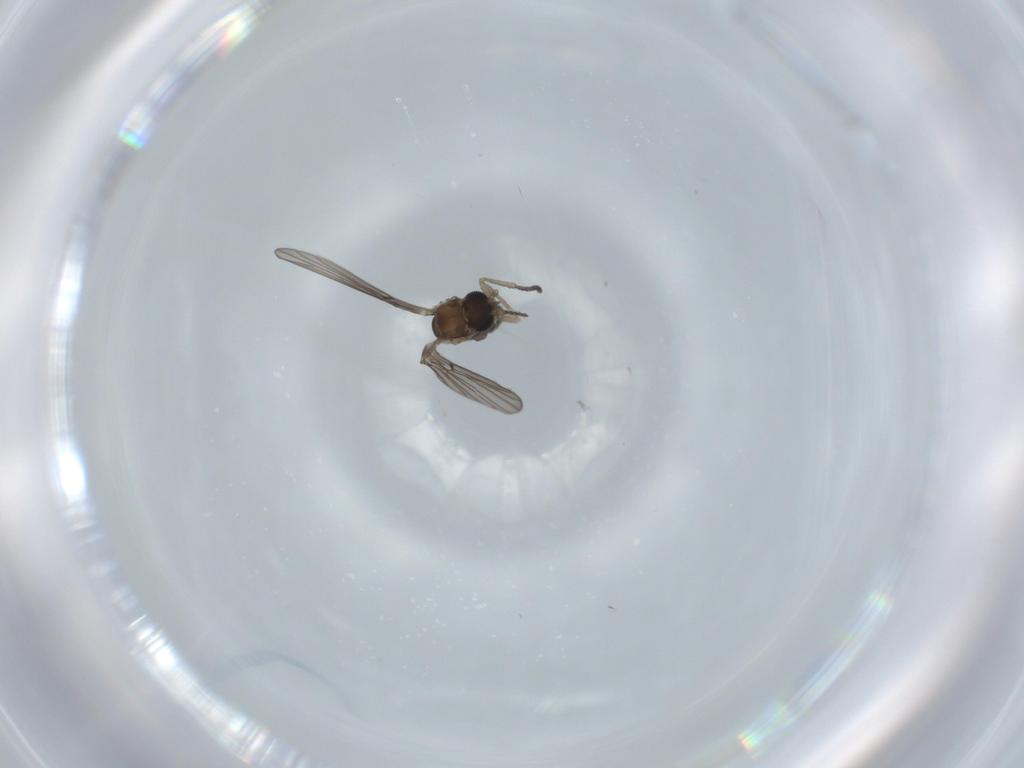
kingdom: Animalia
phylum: Arthropoda
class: Insecta
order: Diptera
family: Psychodidae
